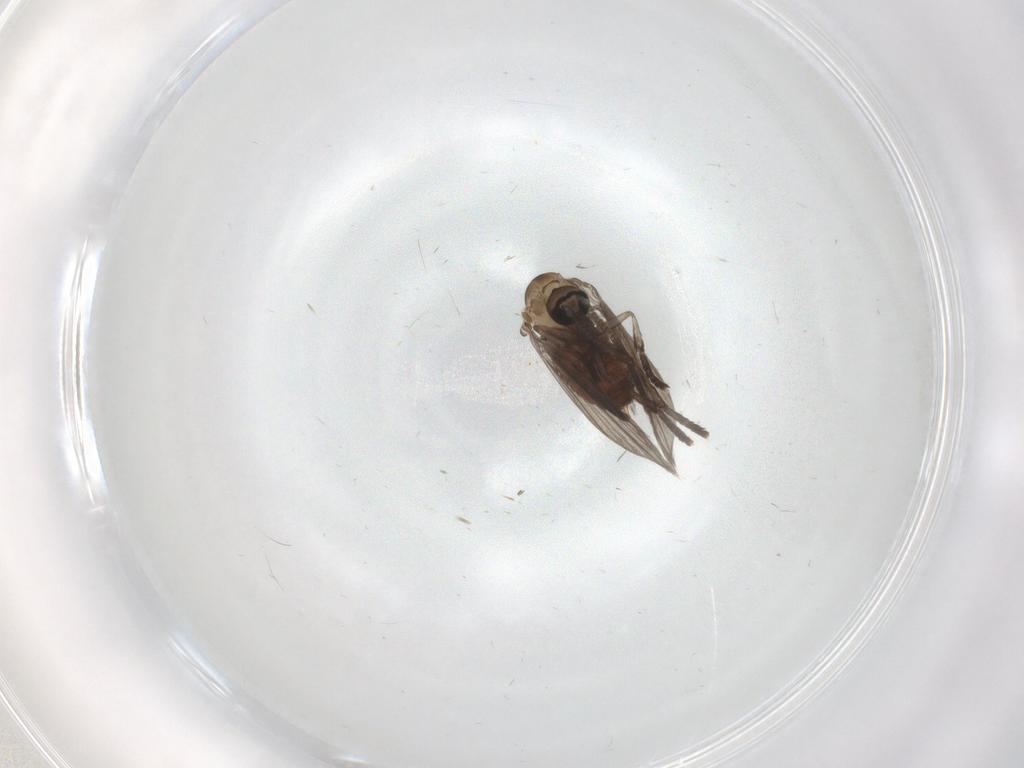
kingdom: Animalia
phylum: Arthropoda
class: Insecta
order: Diptera
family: Psychodidae
